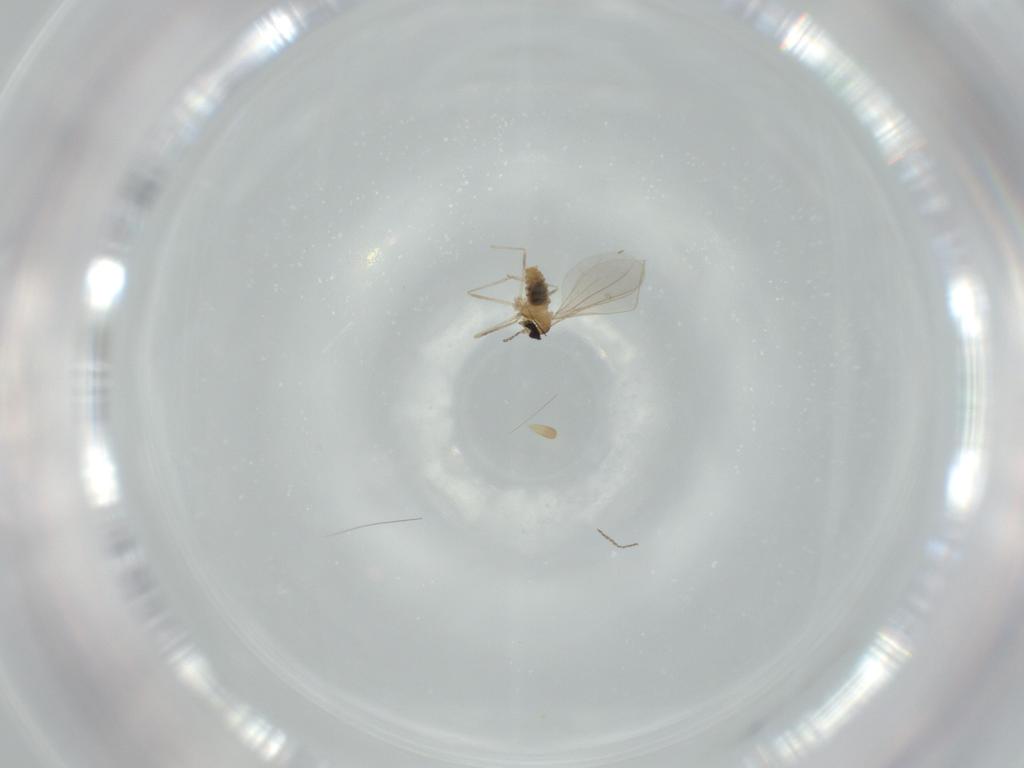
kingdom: Animalia
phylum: Arthropoda
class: Insecta
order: Diptera
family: Cecidomyiidae
